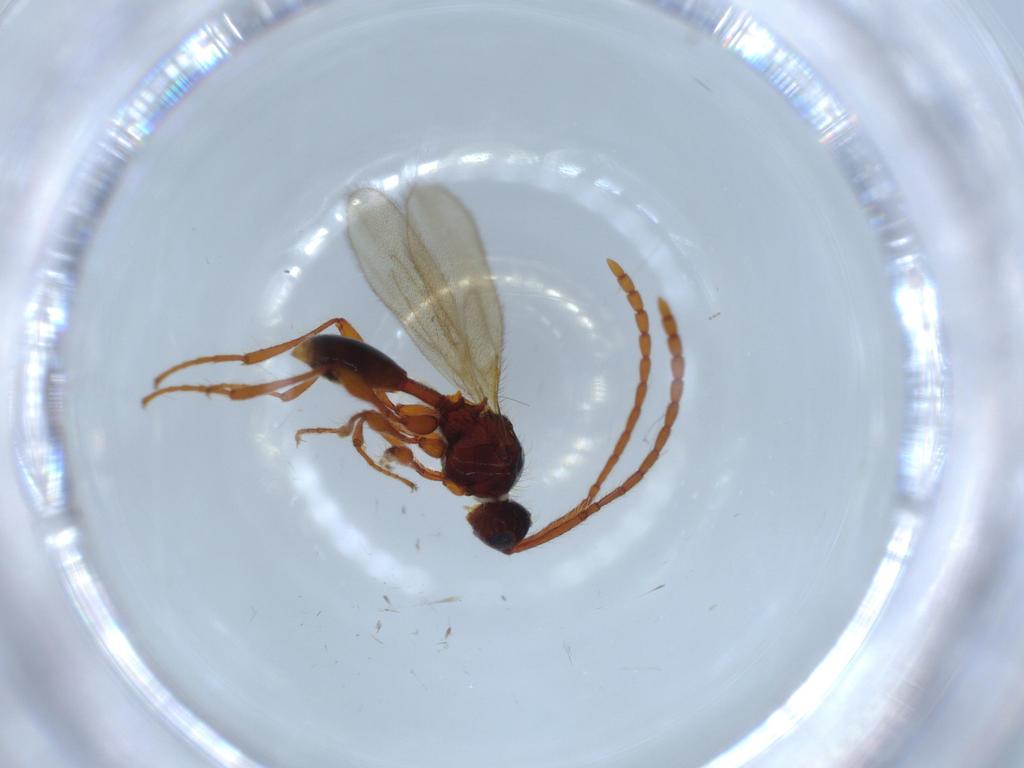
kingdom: Animalia
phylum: Arthropoda
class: Insecta
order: Hymenoptera
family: Diapriidae
